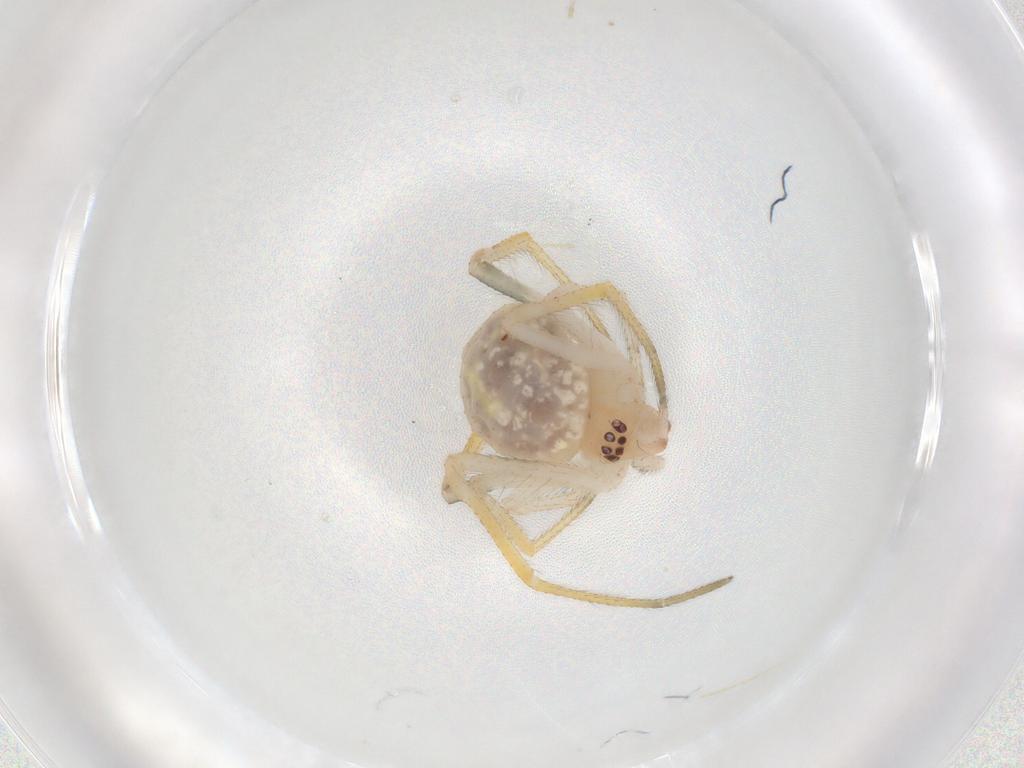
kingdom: Animalia
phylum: Arthropoda
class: Arachnida
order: Araneae
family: Theridiidae
